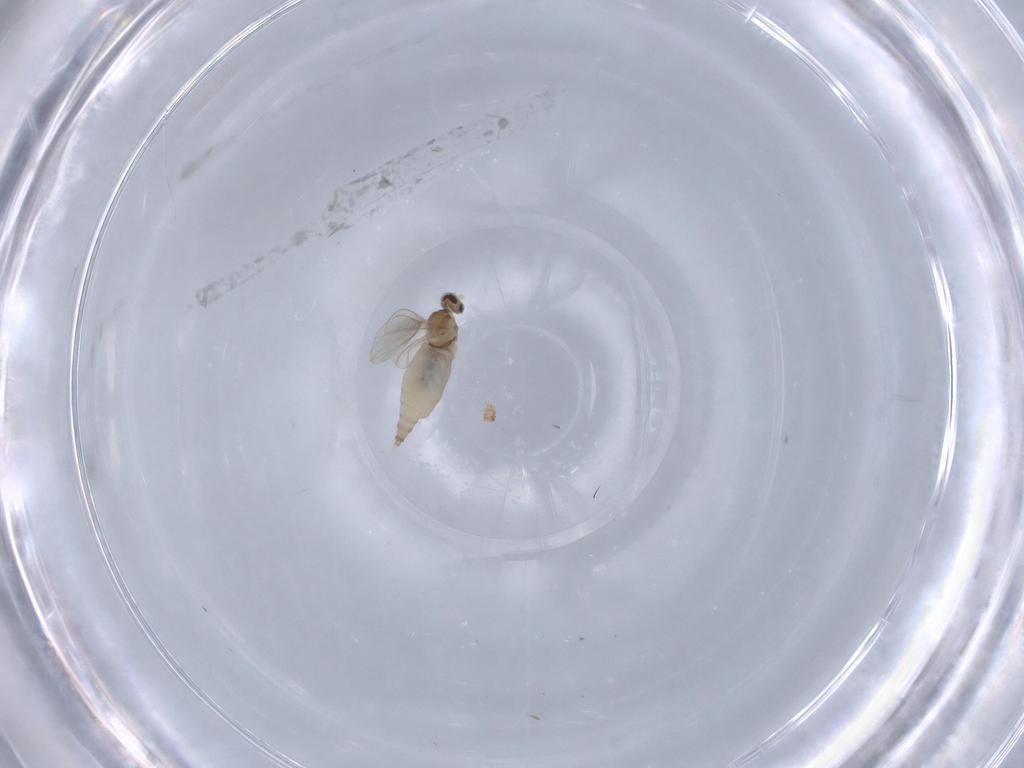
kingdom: Animalia
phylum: Arthropoda
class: Insecta
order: Diptera
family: Cecidomyiidae
